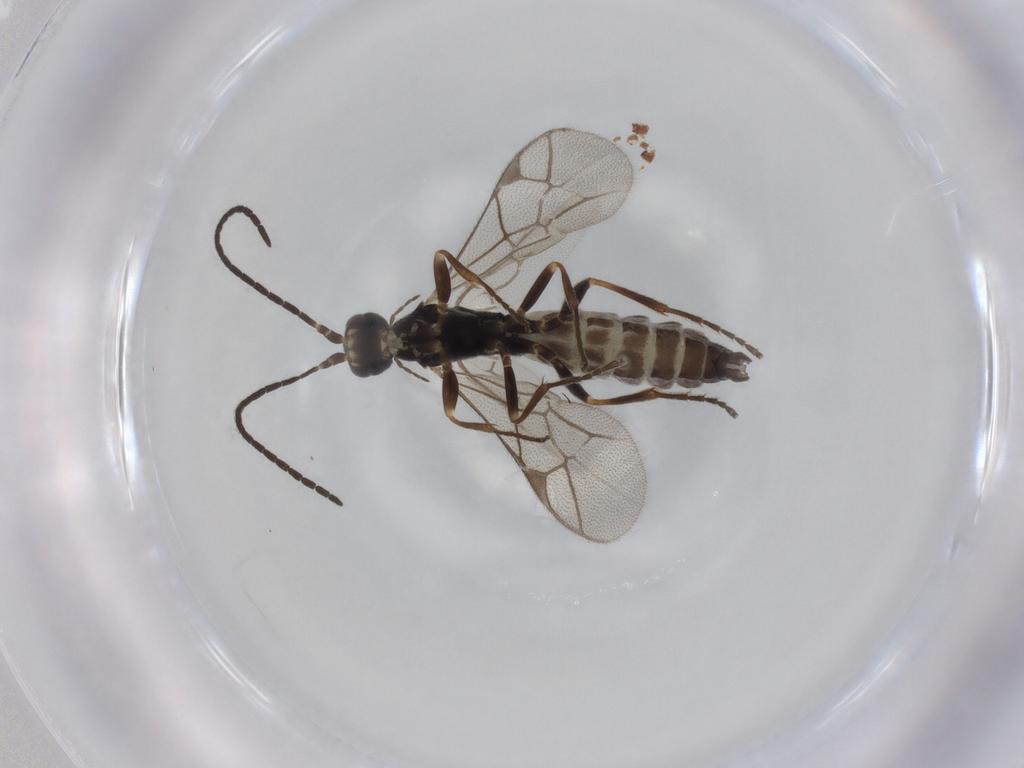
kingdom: Animalia
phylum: Arthropoda
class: Insecta
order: Hymenoptera
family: Ichneumonidae
